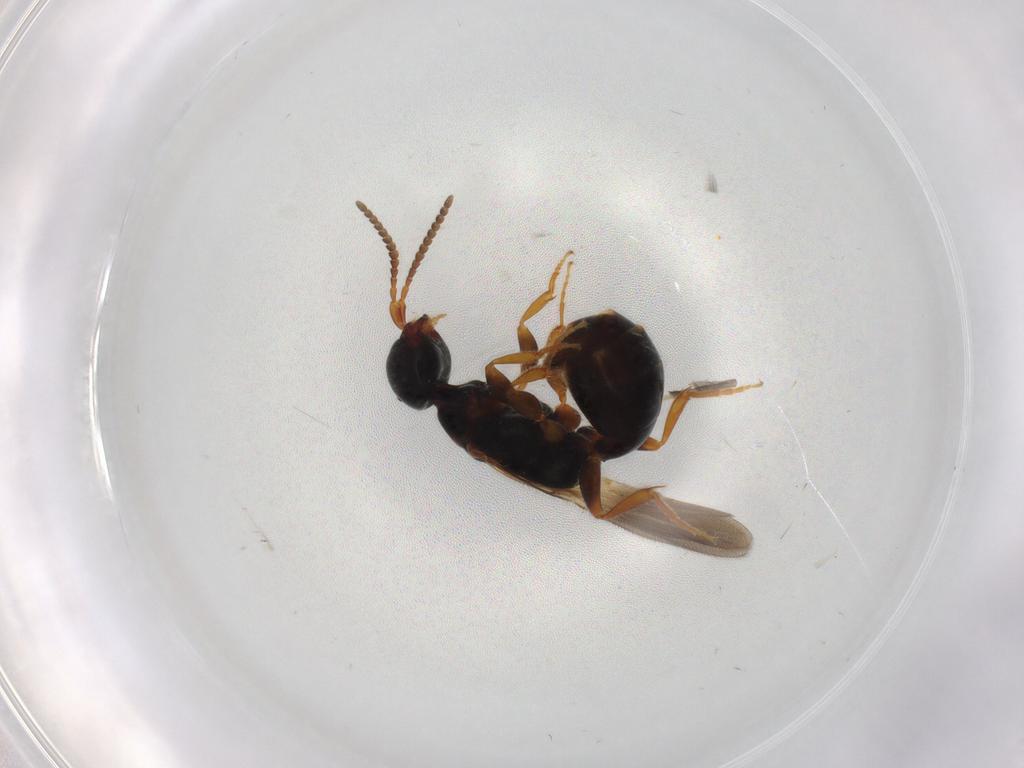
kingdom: Animalia
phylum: Arthropoda
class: Insecta
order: Hymenoptera
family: Bethylidae
